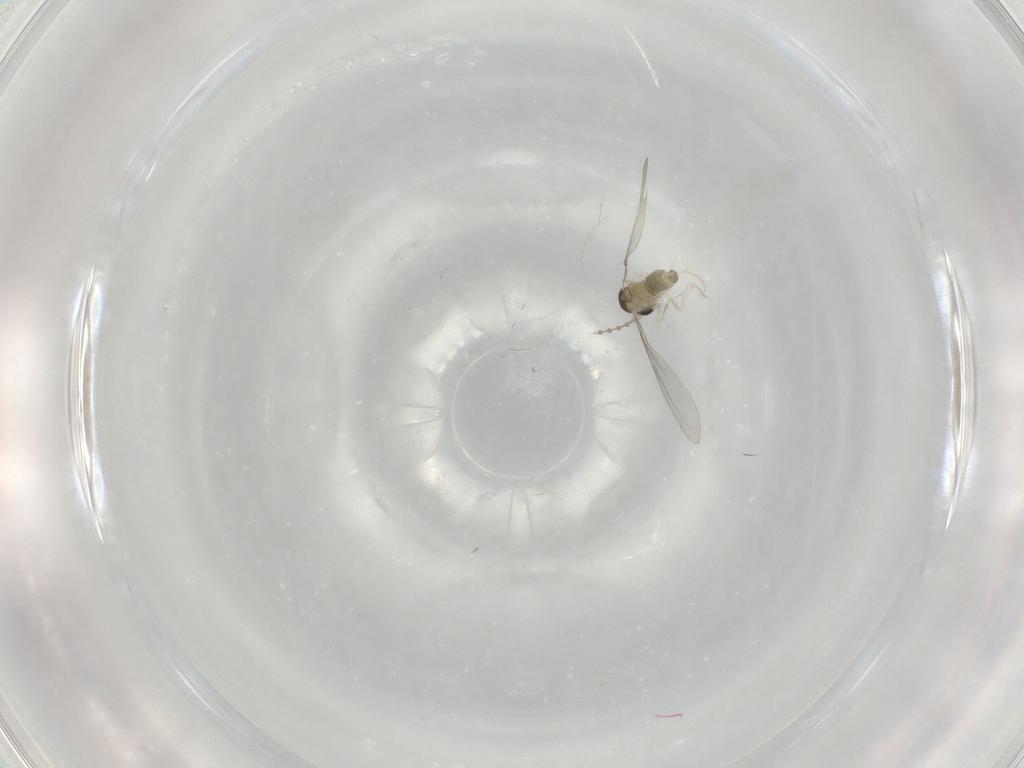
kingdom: Animalia
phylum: Arthropoda
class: Insecta
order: Diptera
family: Cecidomyiidae
